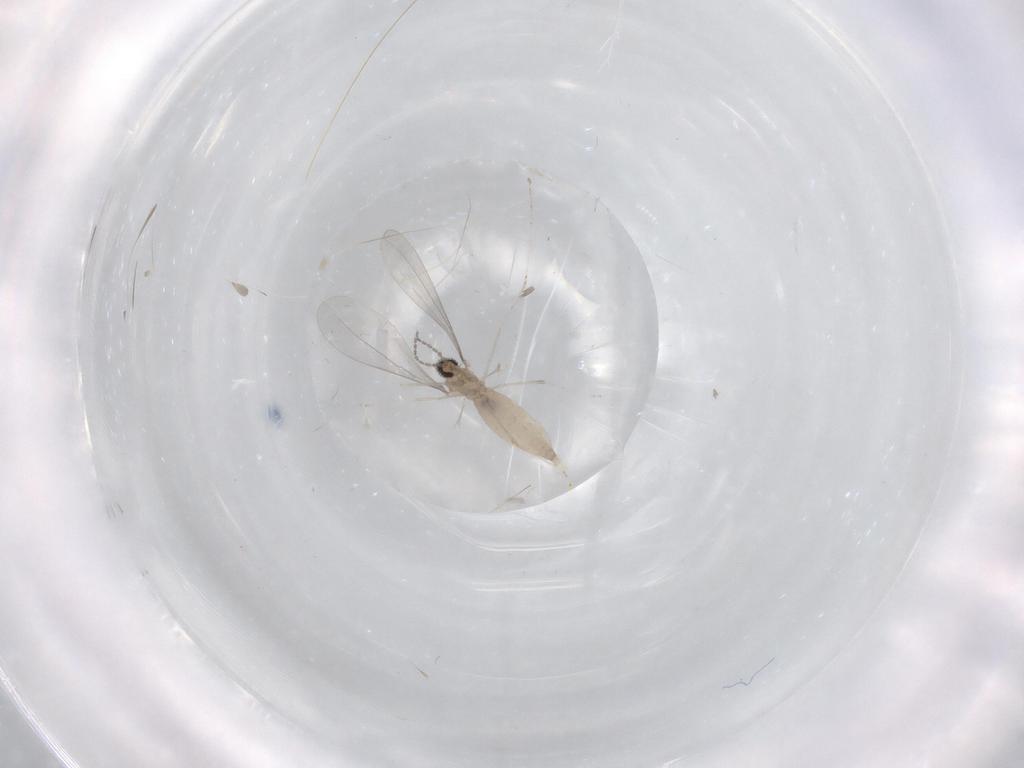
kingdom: Animalia
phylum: Arthropoda
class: Insecta
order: Diptera
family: Cecidomyiidae
